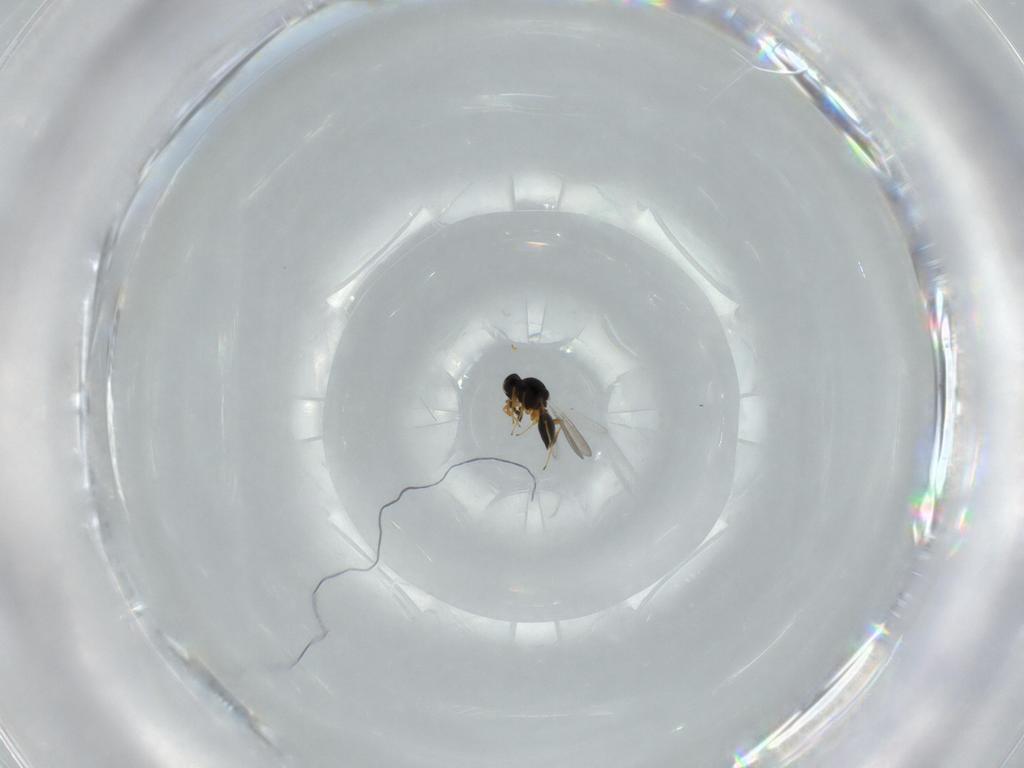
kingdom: Animalia
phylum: Arthropoda
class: Insecta
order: Hymenoptera
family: Platygastridae
